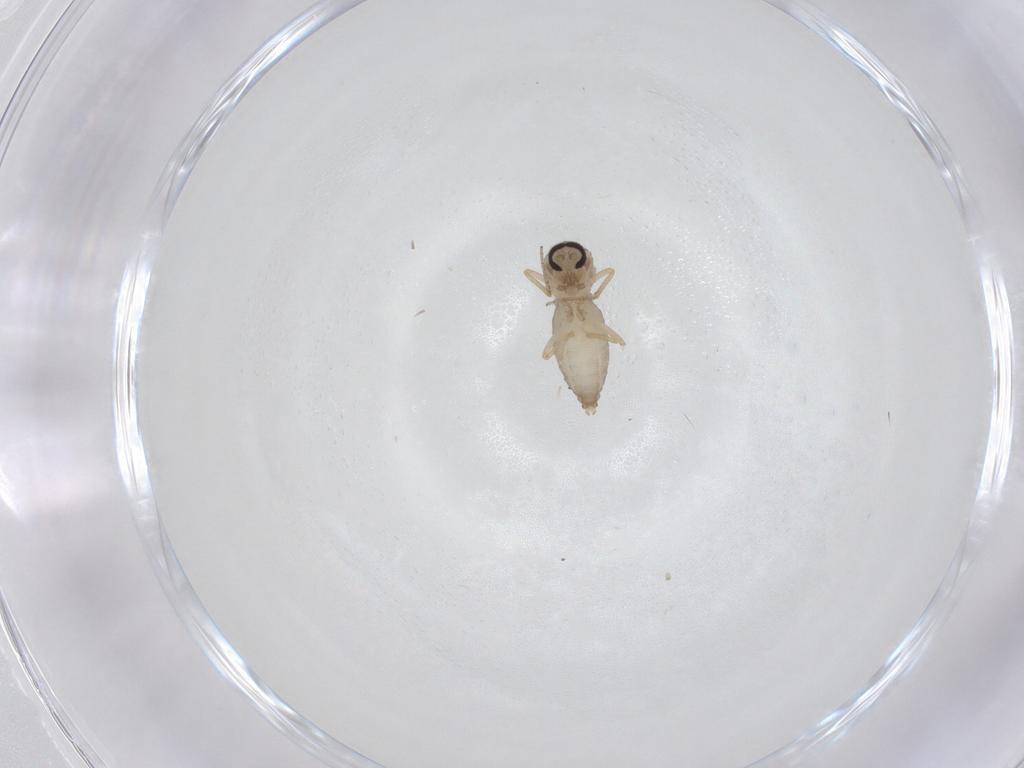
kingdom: Animalia
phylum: Arthropoda
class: Insecta
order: Diptera
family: Ceratopogonidae
